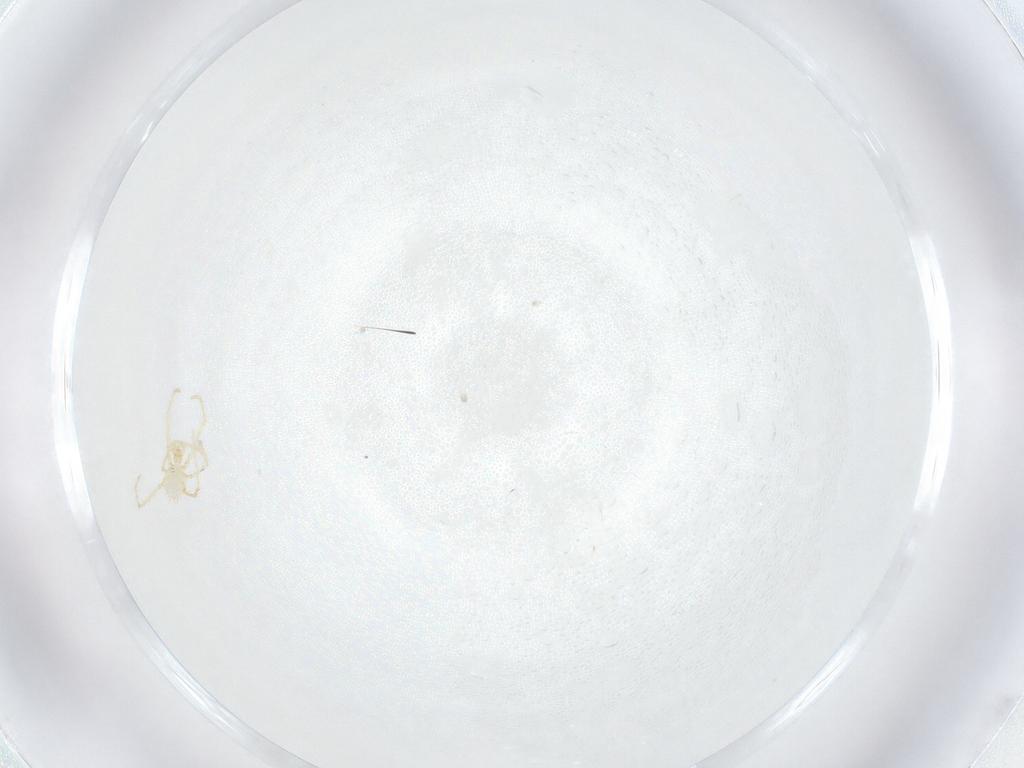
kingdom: Animalia
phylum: Arthropoda
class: Arachnida
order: Trombidiformes
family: Erythraeidae
